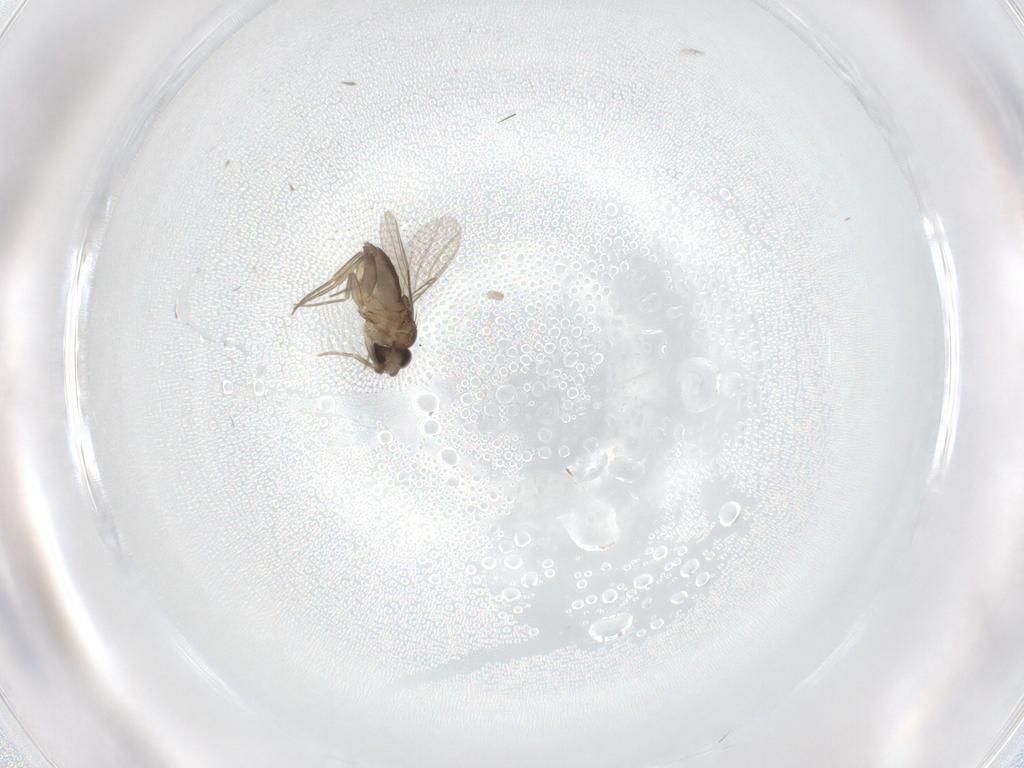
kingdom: Animalia
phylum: Arthropoda
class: Insecta
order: Diptera
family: Phoridae
